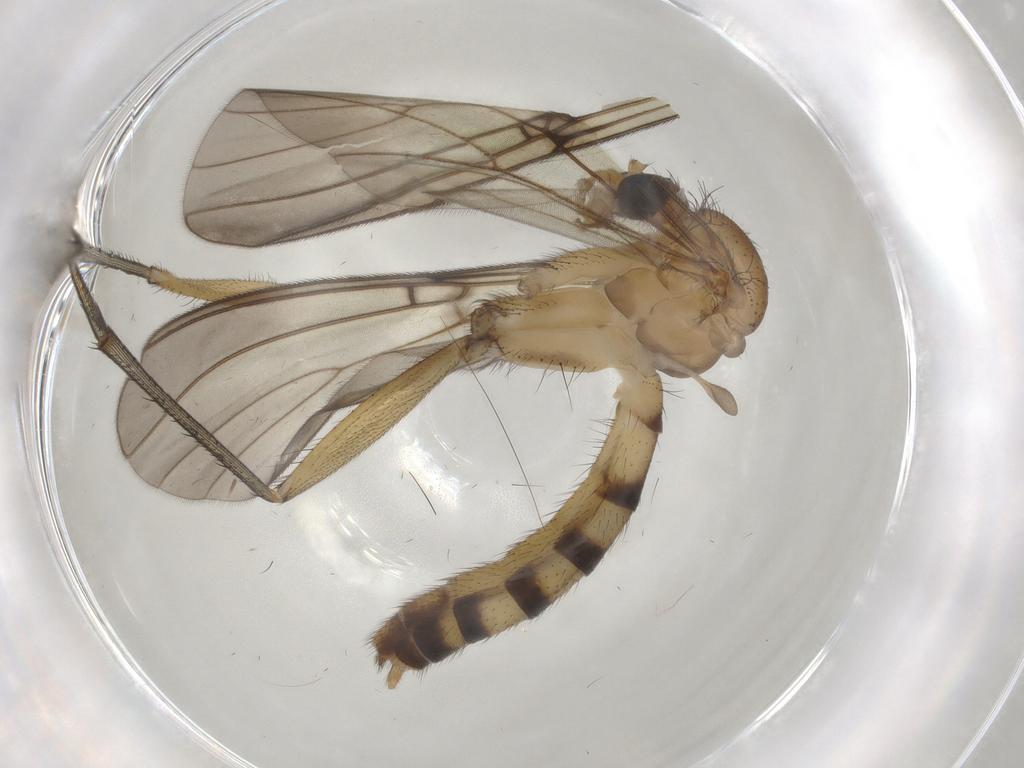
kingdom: Animalia
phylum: Arthropoda
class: Insecta
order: Diptera
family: Mycetophilidae
